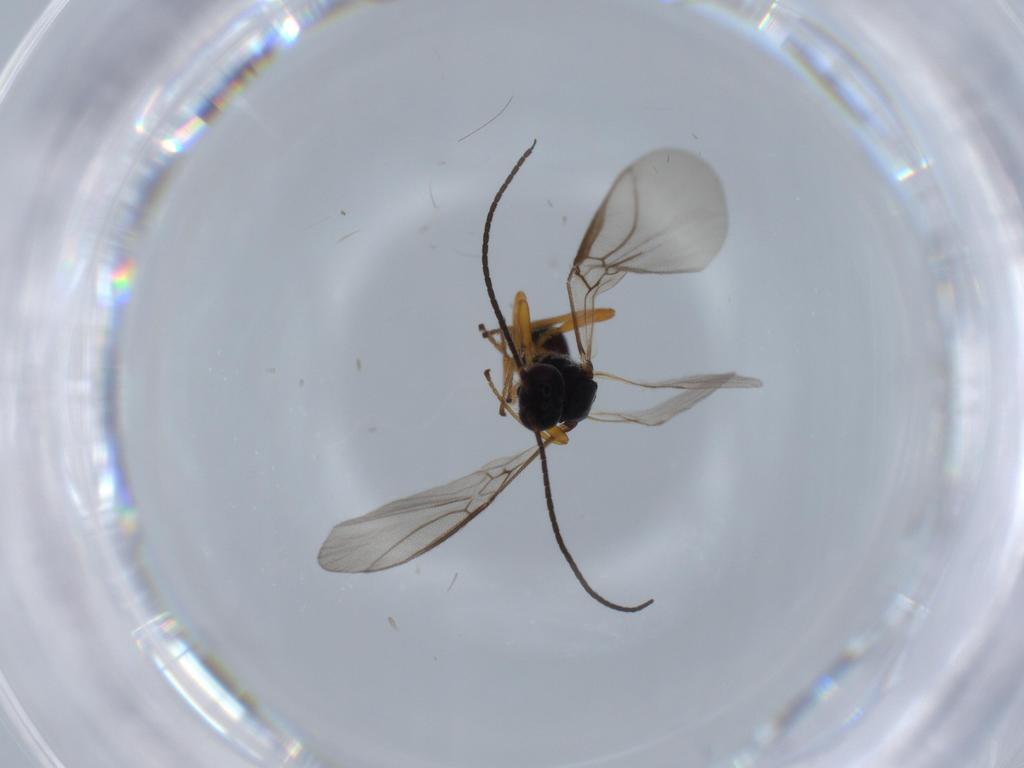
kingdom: Animalia
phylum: Arthropoda
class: Insecta
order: Hymenoptera
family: Braconidae
